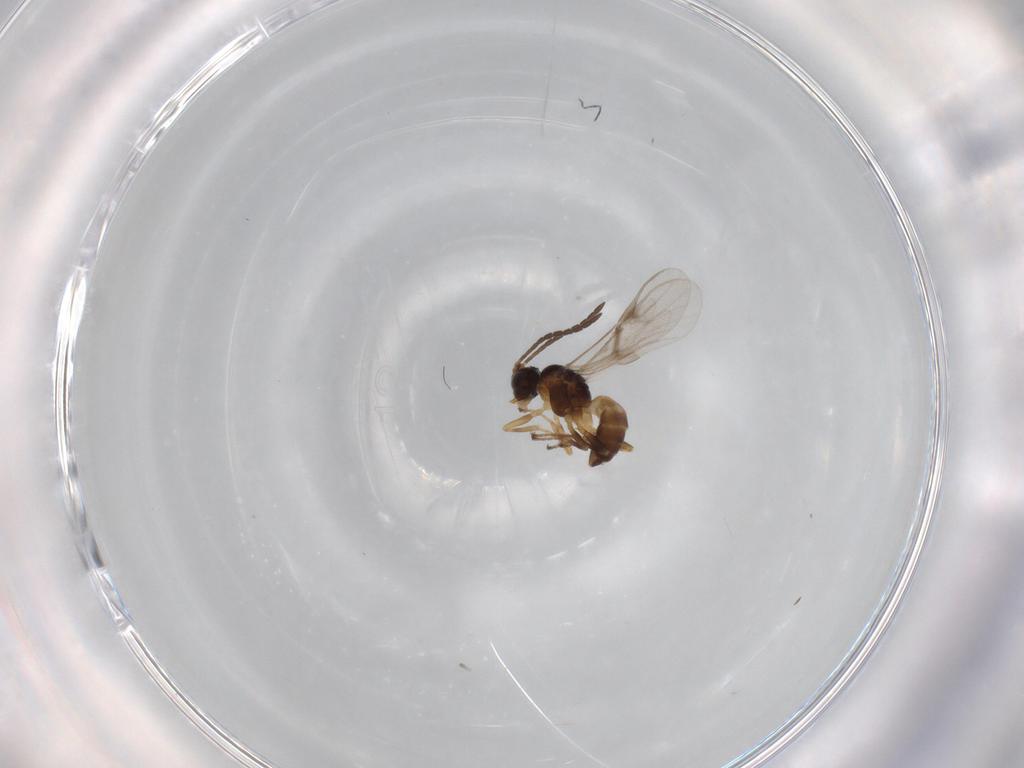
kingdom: Animalia
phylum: Arthropoda
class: Insecta
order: Hymenoptera
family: Braconidae
